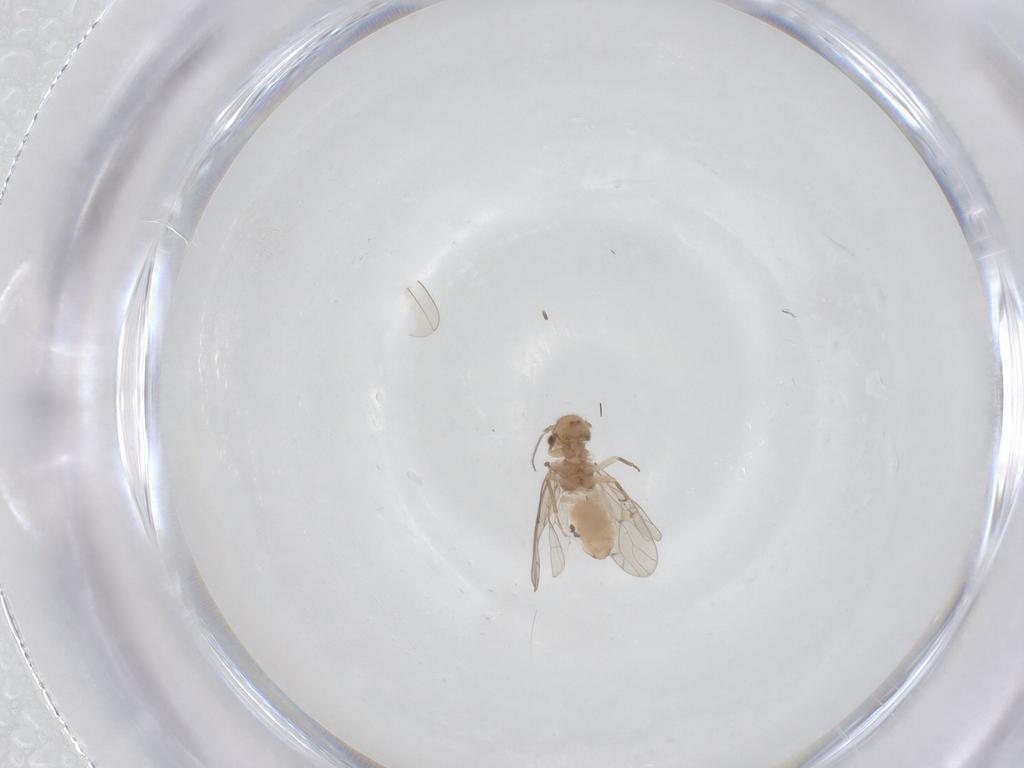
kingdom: Animalia
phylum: Arthropoda
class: Insecta
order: Psocodea
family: Ectopsocidae
